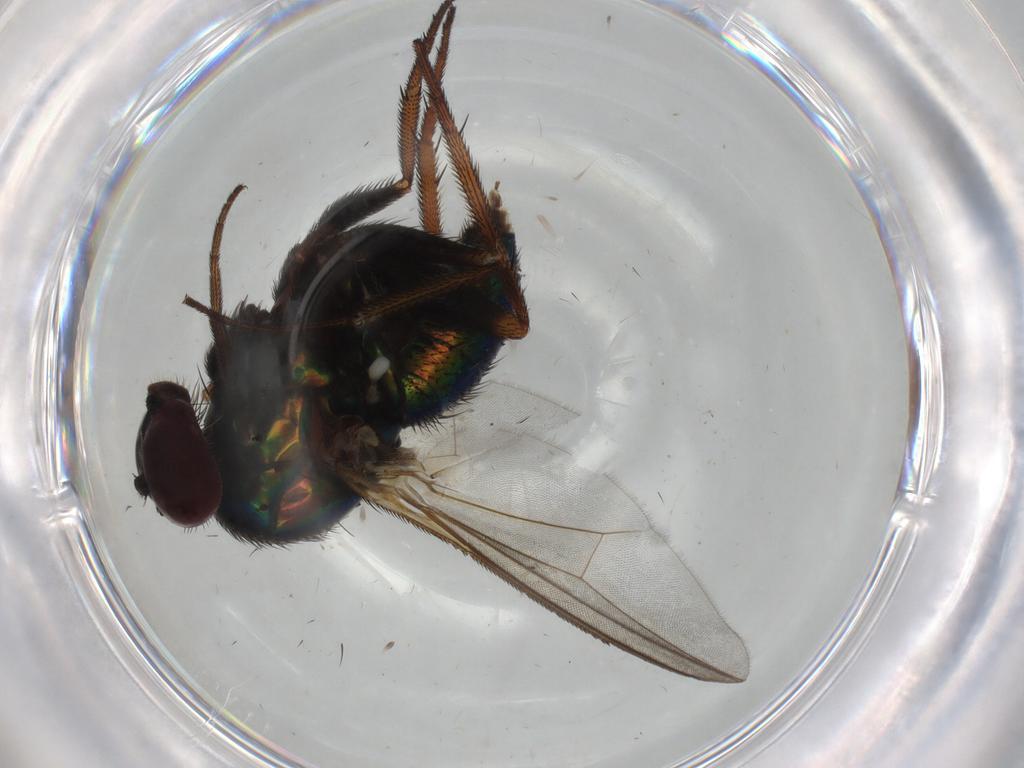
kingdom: Animalia
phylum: Arthropoda
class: Insecta
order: Diptera
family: Dolichopodidae
